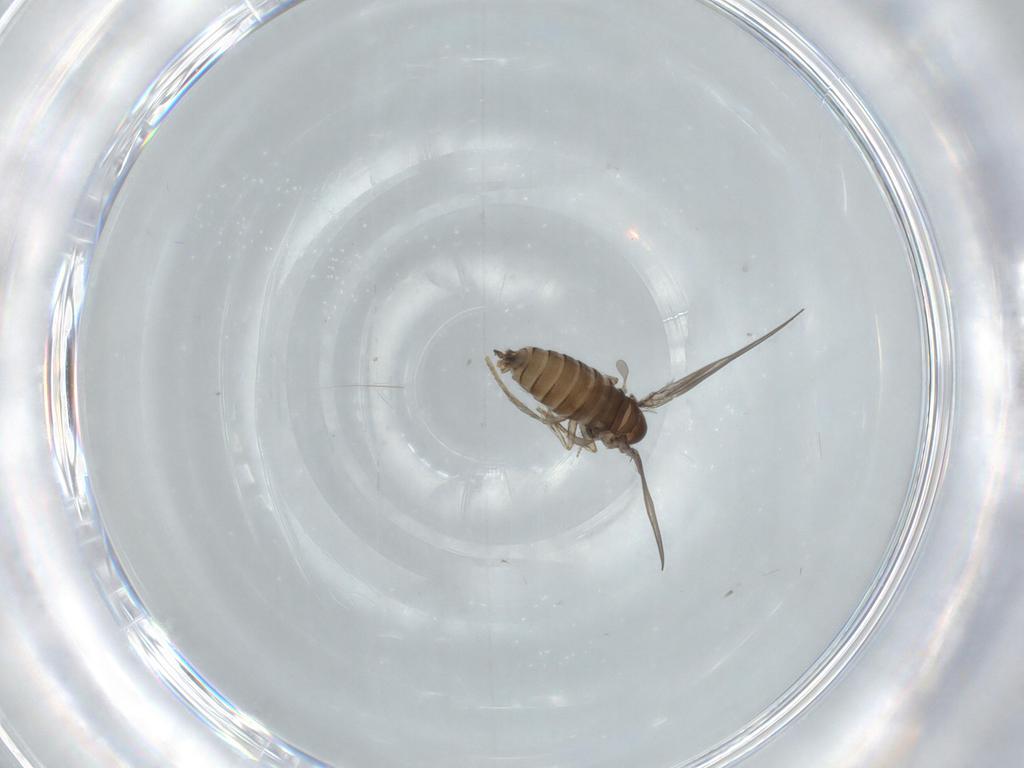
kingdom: Animalia
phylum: Arthropoda
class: Insecta
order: Diptera
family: Psychodidae
